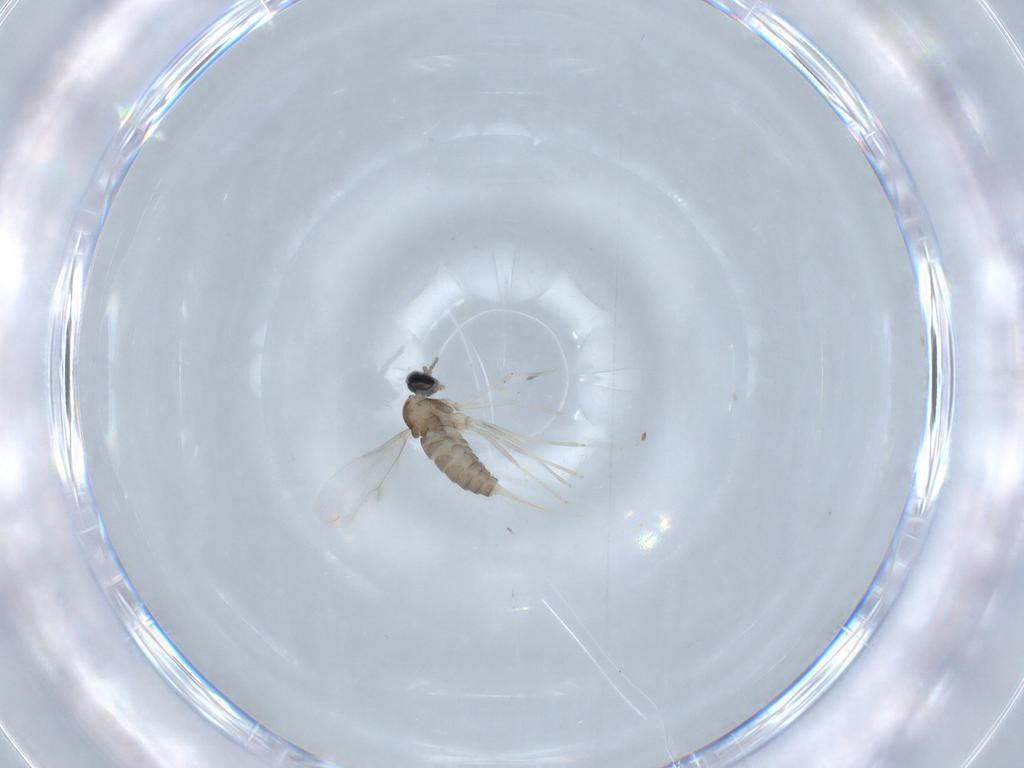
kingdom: Animalia
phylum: Arthropoda
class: Insecta
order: Diptera
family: Cecidomyiidae
